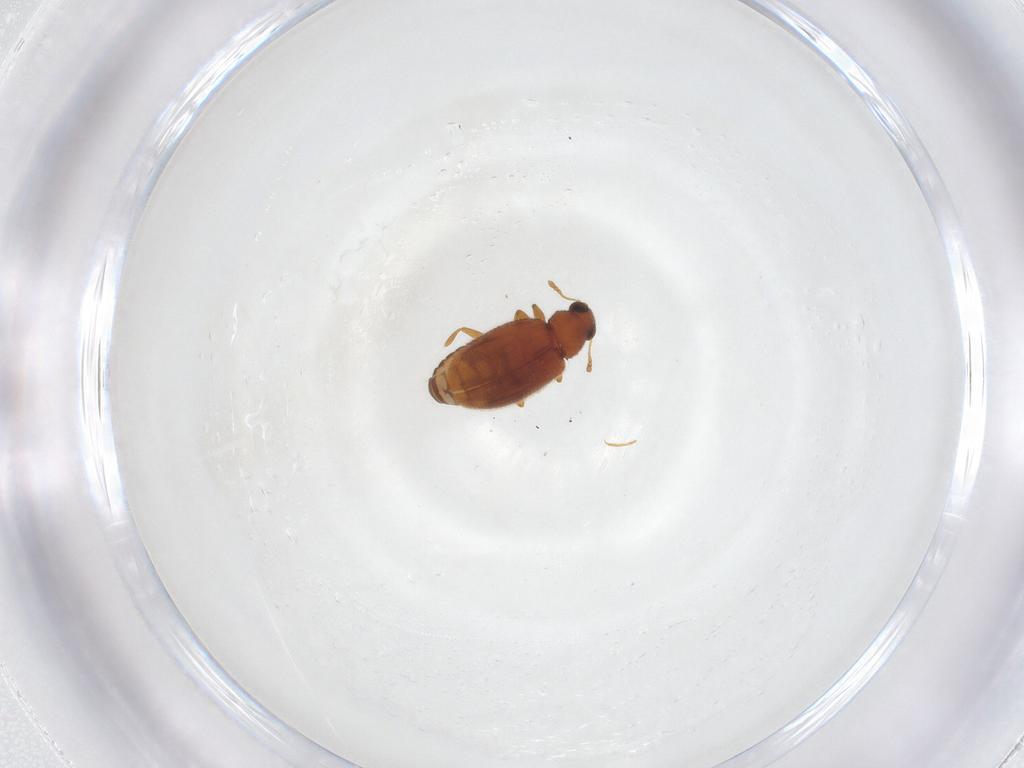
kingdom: Animalia
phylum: Arthropoda
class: Insecta
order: Coleoptera
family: Latridiidae
